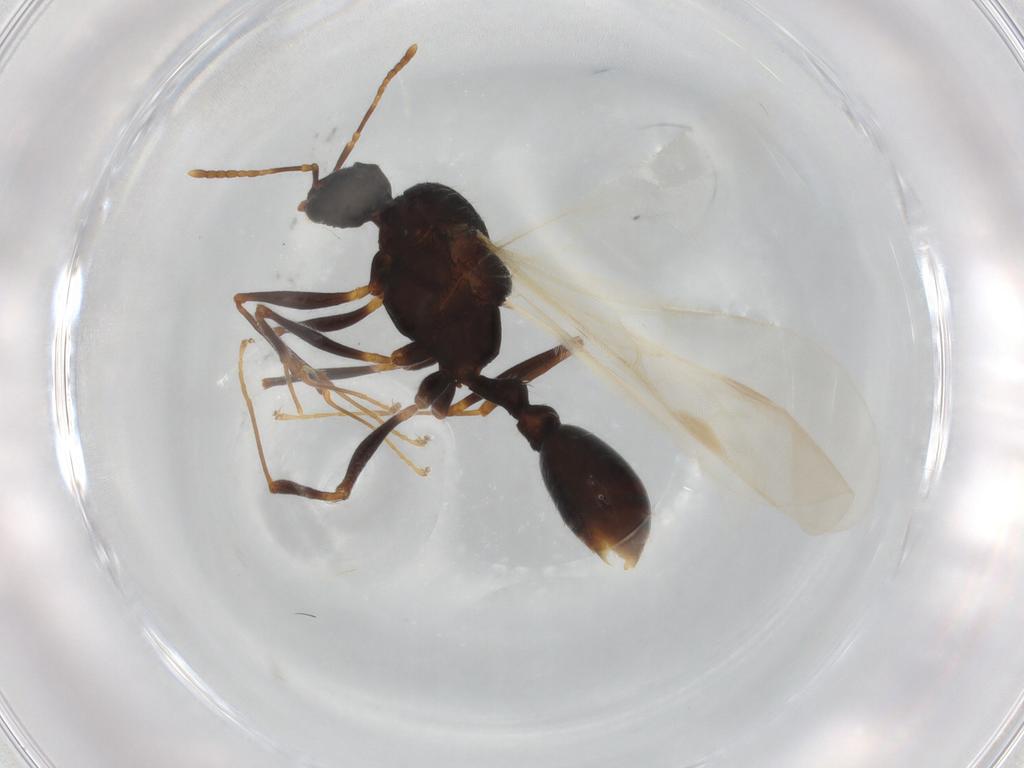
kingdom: Animalia
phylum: Arthropoda
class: Insecta
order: Hymenoptera
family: Formicidae
